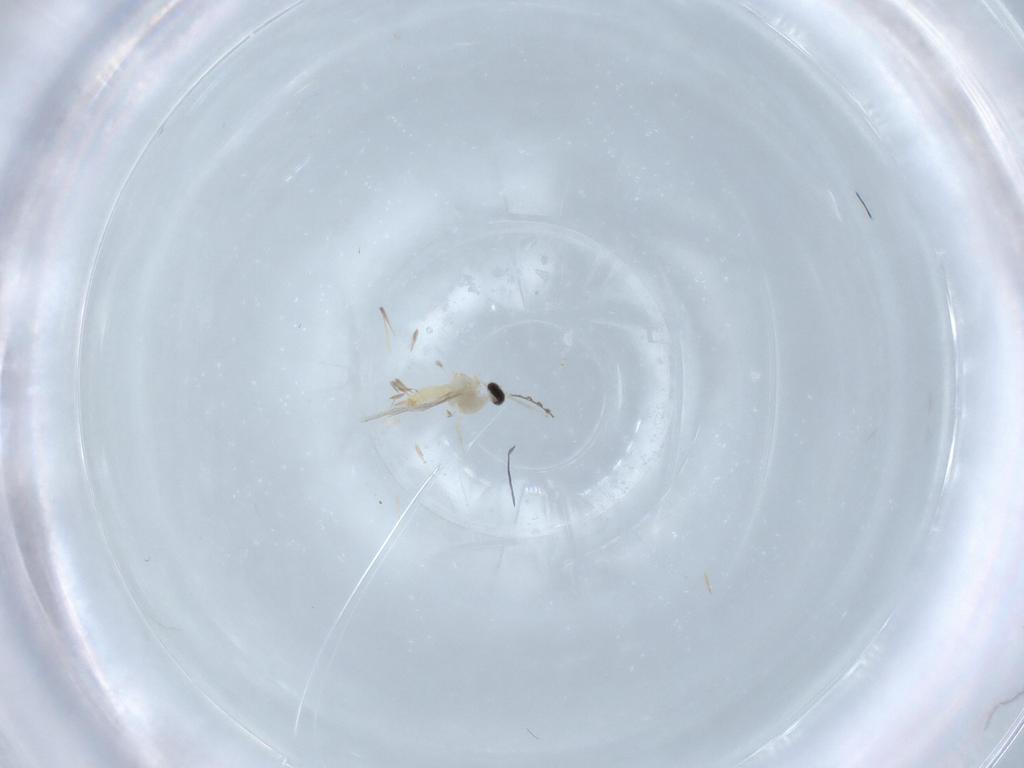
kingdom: Animalia
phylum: Arthropoda
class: Insecta
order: Diptera
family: Cecidomyiidae
